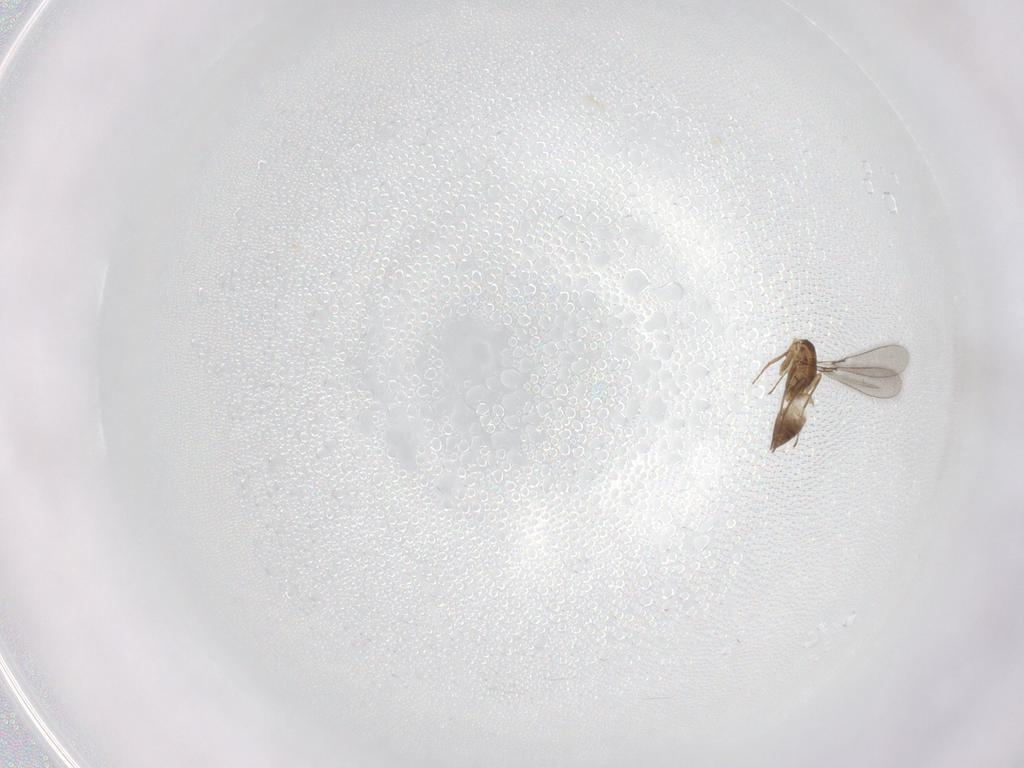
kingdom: Animalia
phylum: Arthropoda
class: Insecta
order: Hymenoptera
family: Mymaridae
